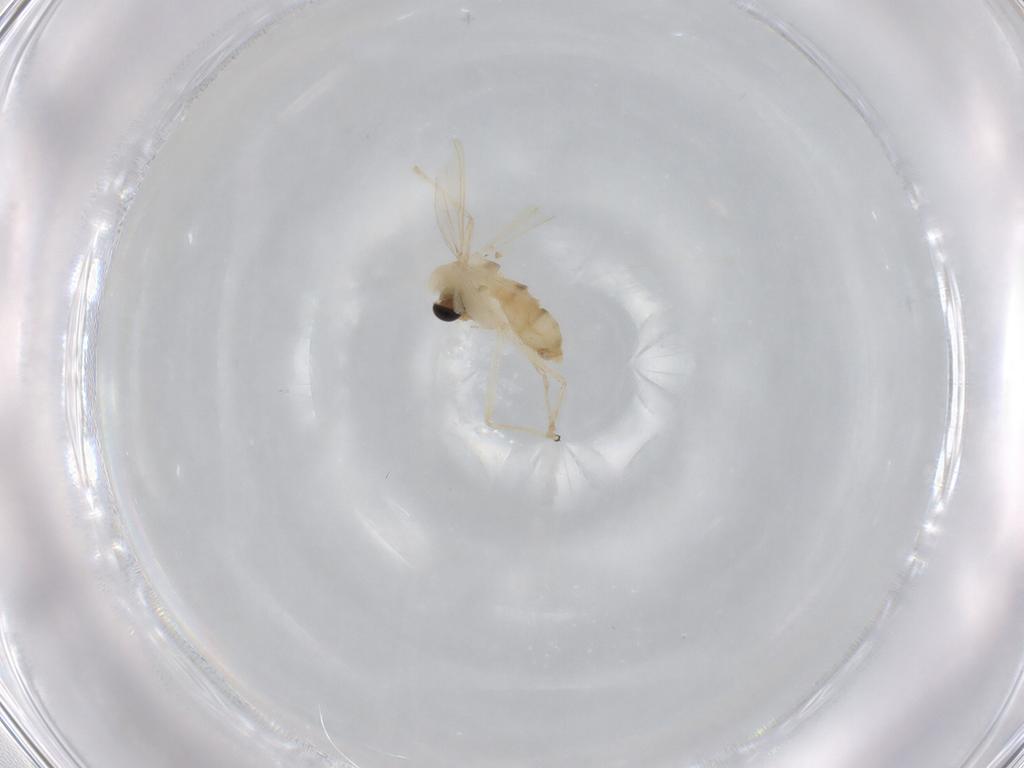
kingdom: Animalia
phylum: Arthropoda
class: Insecta
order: Diptera
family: Chironomidae
